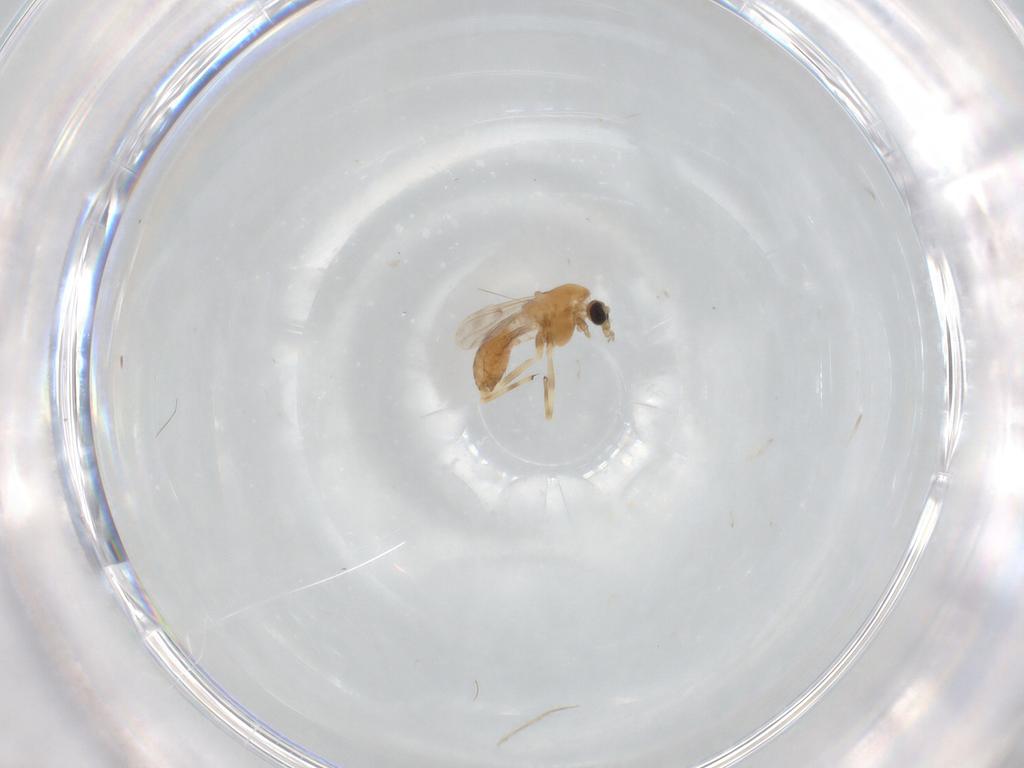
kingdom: Animalia
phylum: Arthropoda
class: Insecta
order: Diptera
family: Chironomidae
